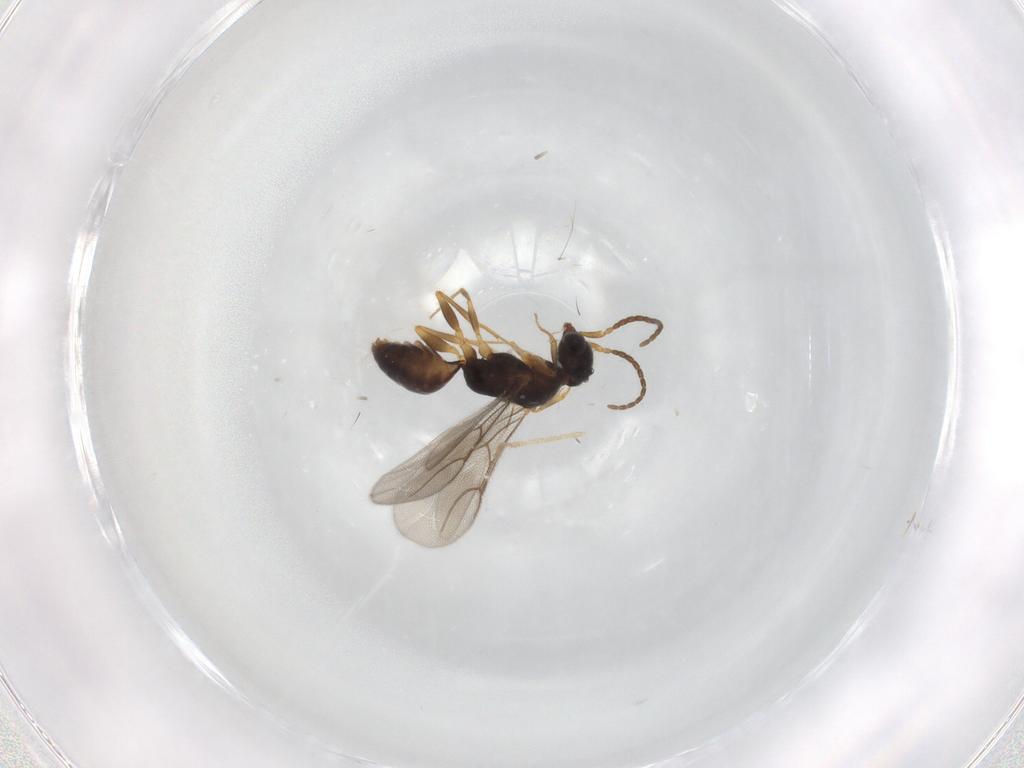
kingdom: Animalia
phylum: Arthropoda
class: Insecta
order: Hymenoptera
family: Bethylidae
